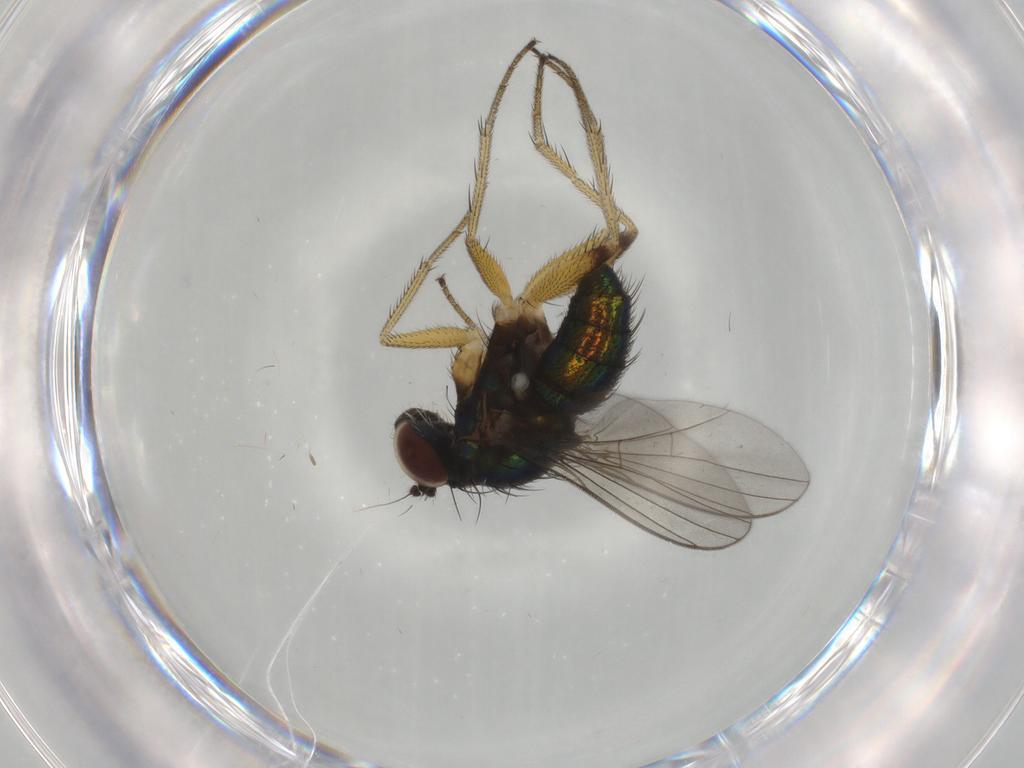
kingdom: Animalia
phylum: Arthropoda
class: Insecta
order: Diptera
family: Dolichopodidae
